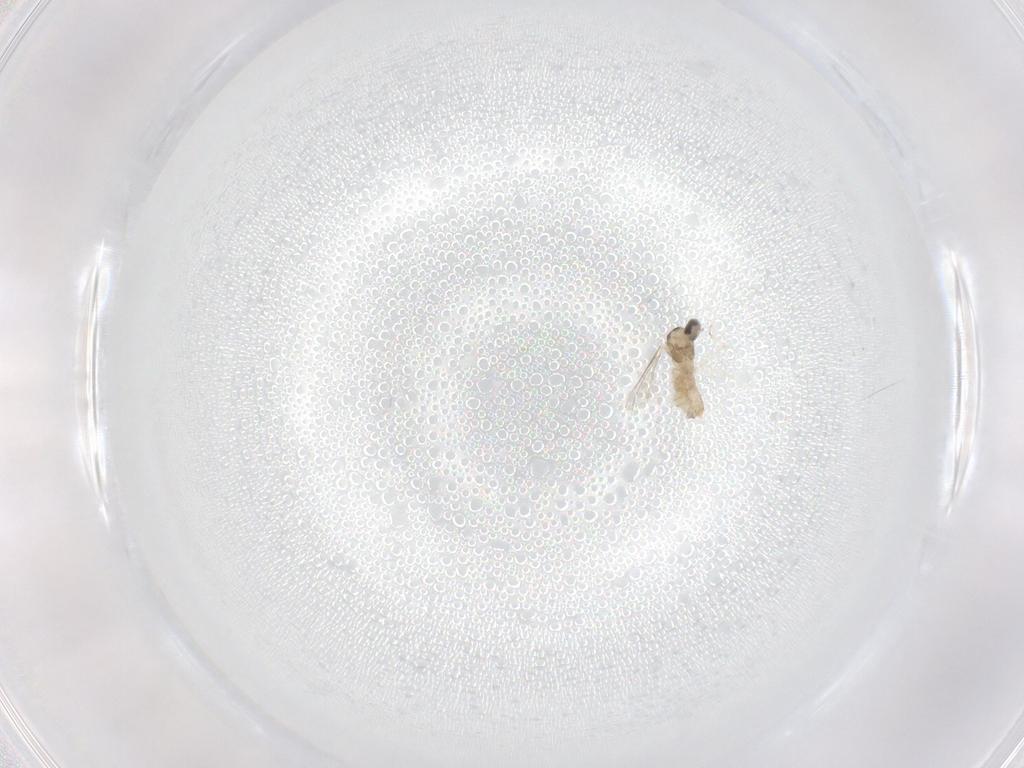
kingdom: Animalia
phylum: Arthropoda
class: Insecta
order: Diptera
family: Cecidomyiidae
